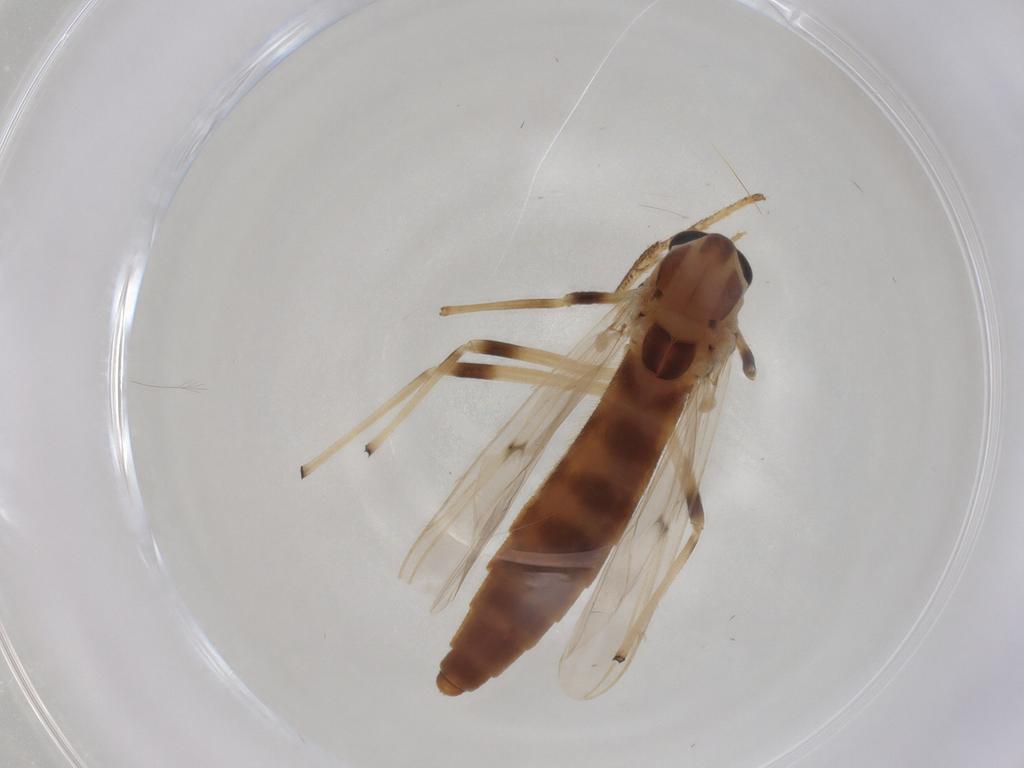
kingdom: Animalia
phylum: Arthropoda
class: Insecta
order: Diptera
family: Chironomidae
